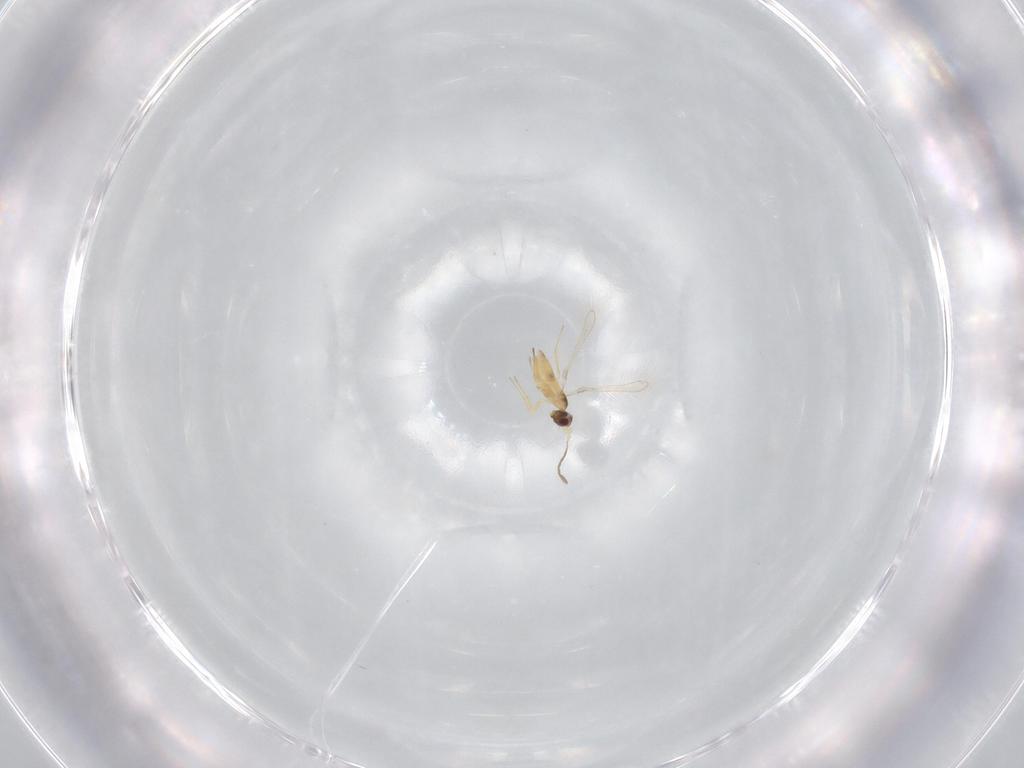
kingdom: Animalia
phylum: Arthropoda
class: Insecta
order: Hymenoptera
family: Mymaridae
